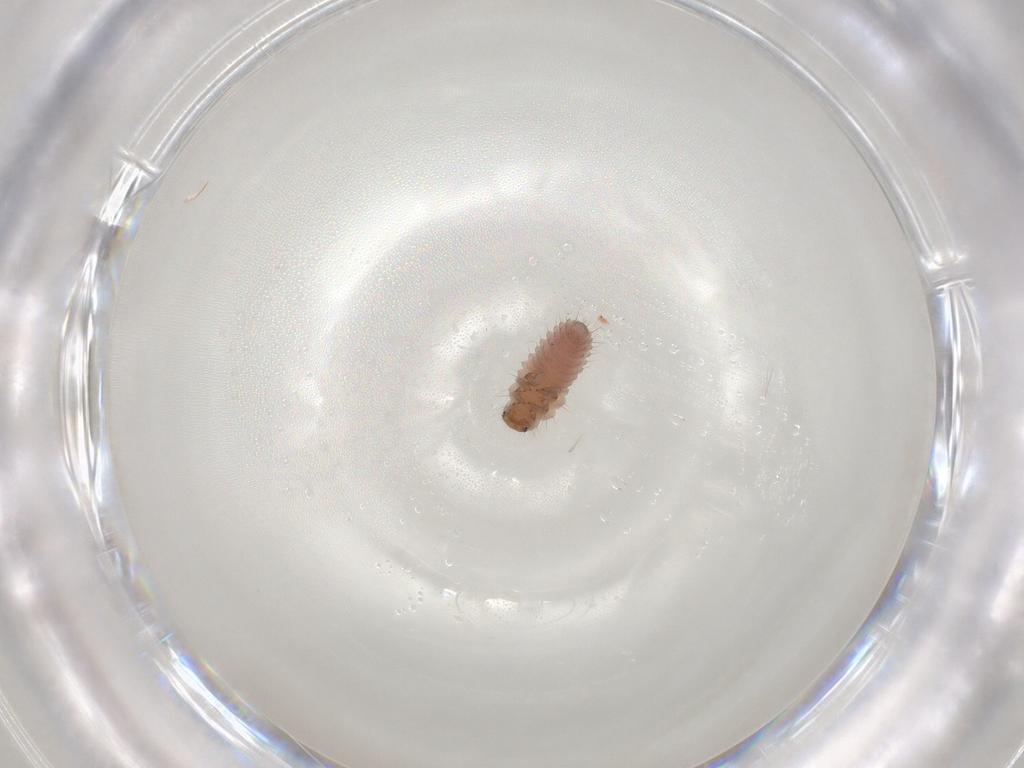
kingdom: Animalia
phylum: Arthropoda
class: Insecta
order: Coleoptera
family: Coccinellidae
